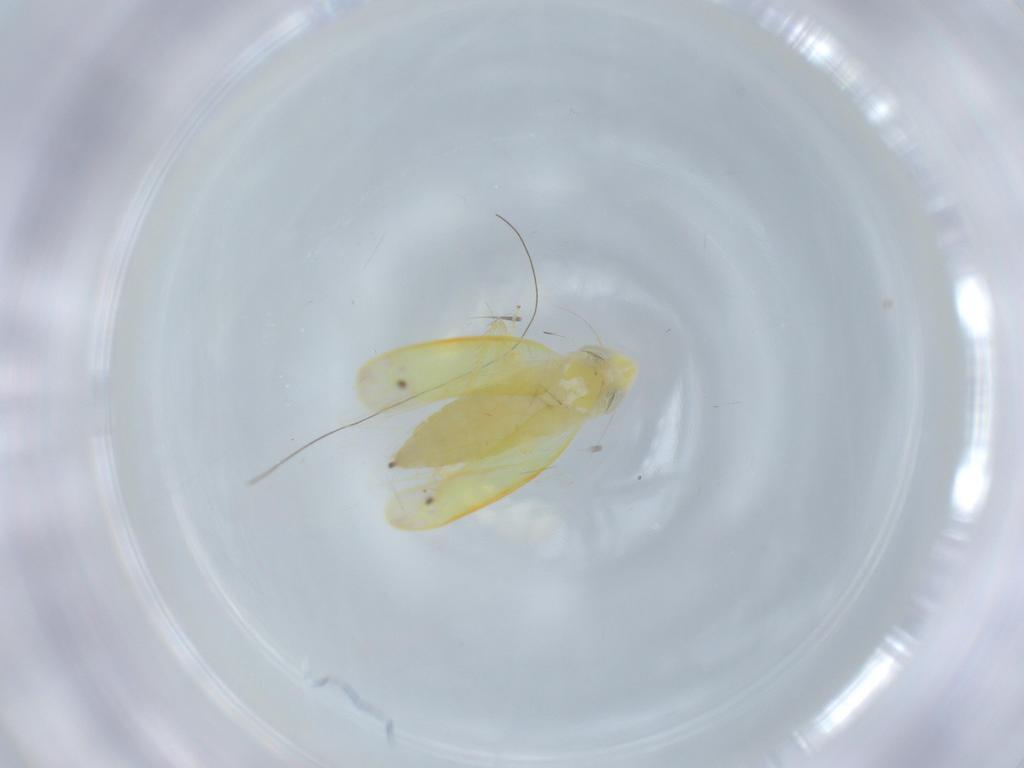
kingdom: Animalia
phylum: Arthropoda
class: Insecta
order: Hemiptera
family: Cicadellidae
